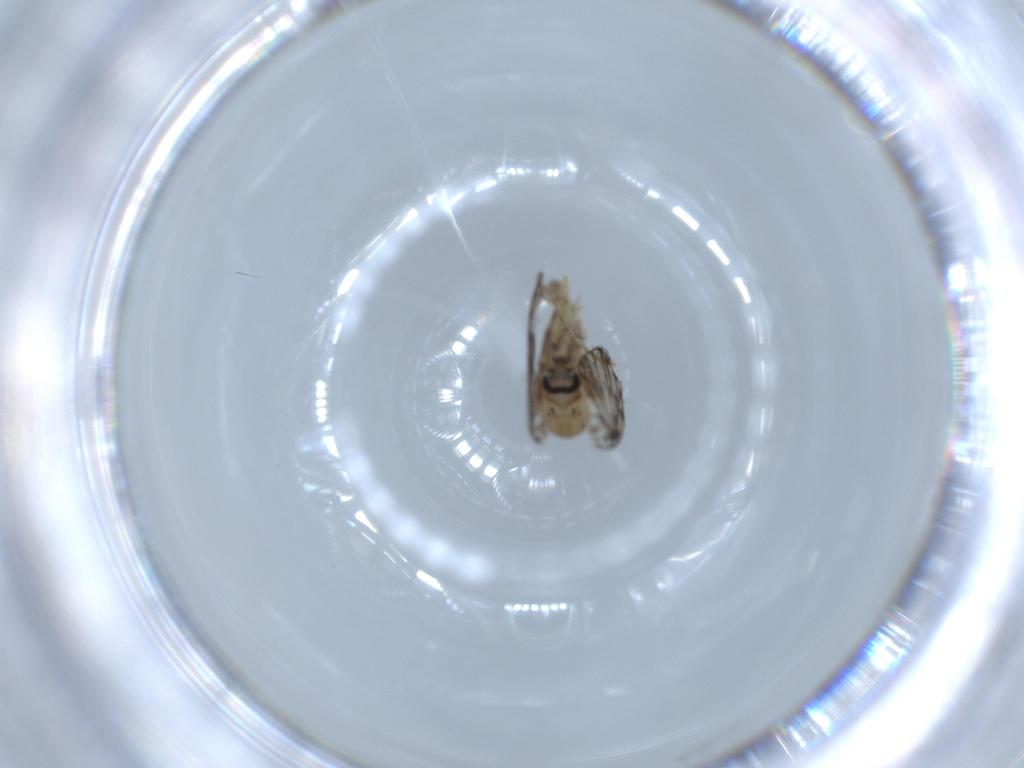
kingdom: Animalia
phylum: Arthropoda
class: Insecta
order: Diptera
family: Psychodidae
